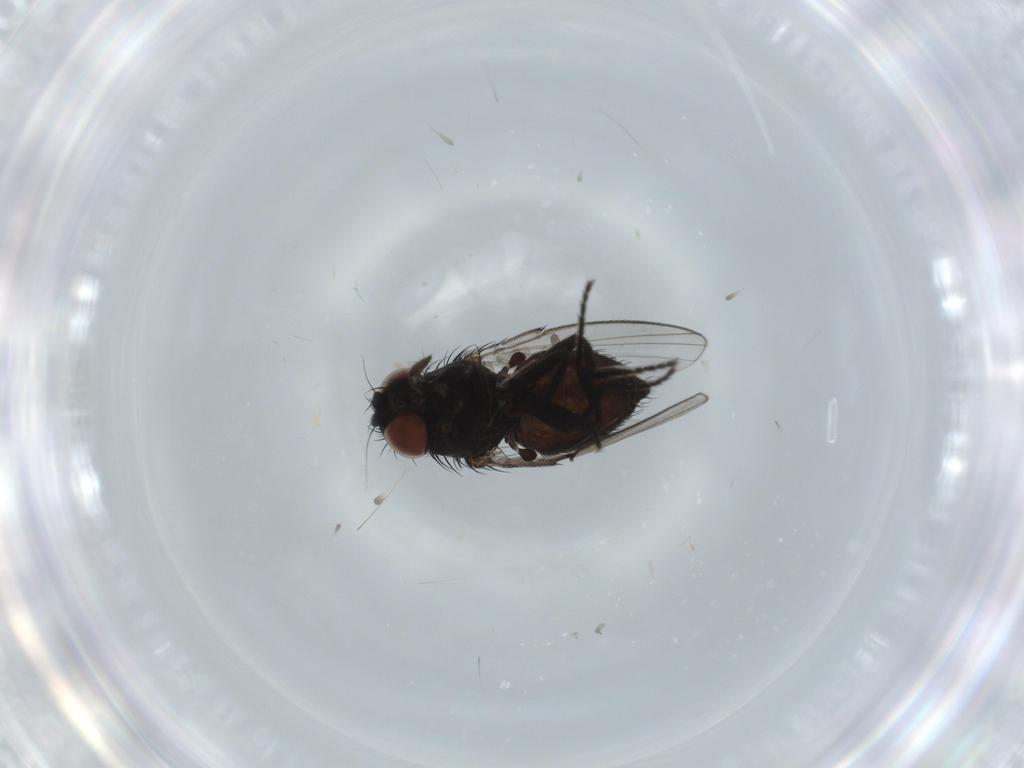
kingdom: Animalia
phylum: Arthropoda
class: Insecta
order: Diptera
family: Milichiidae
